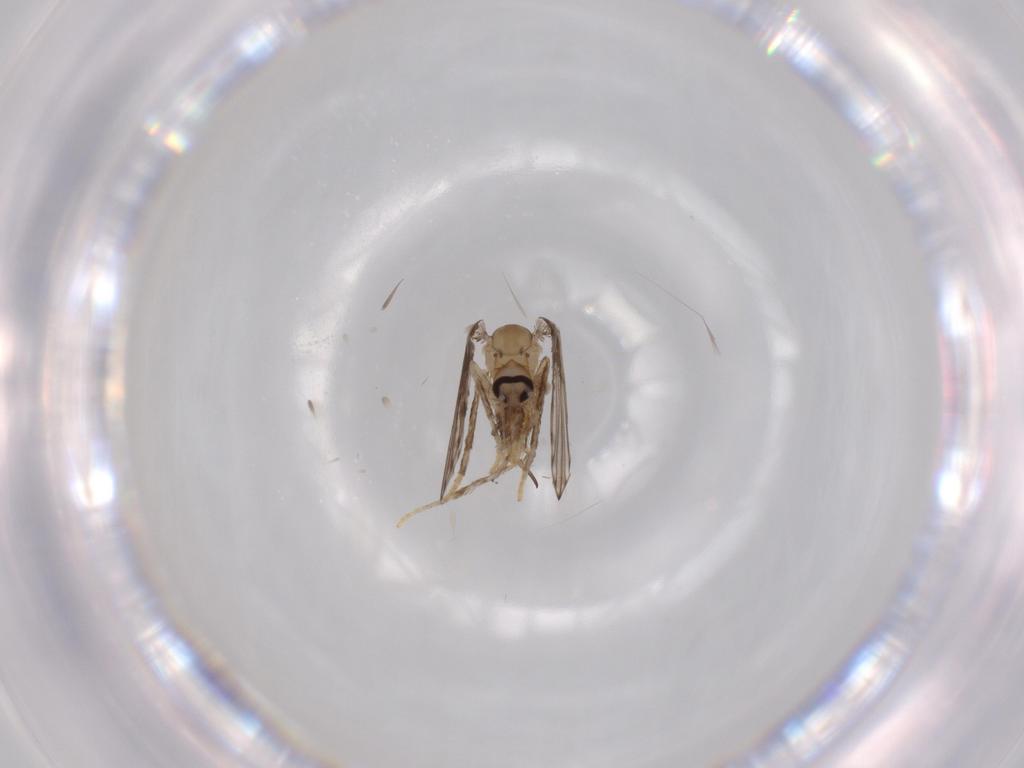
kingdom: Animalia
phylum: Arthropoda
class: Insecta
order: Diptera
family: Psychodidae
